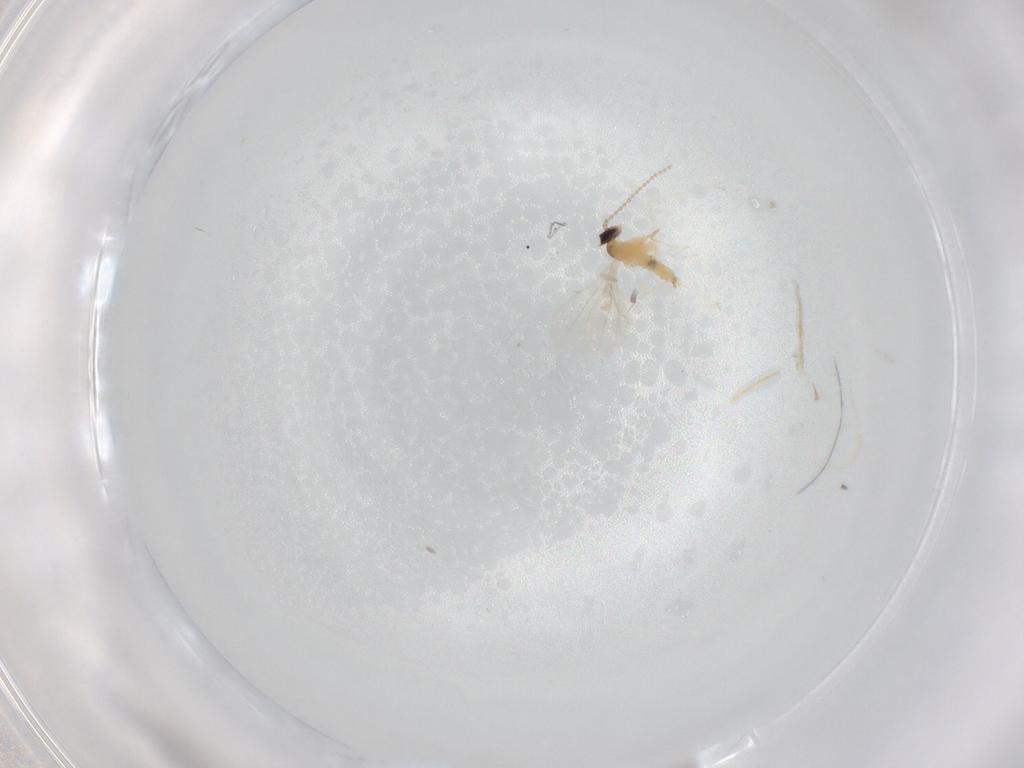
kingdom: Animalia
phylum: Arthropoda
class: Insecta
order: Diptera
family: Cecidomyiidae
